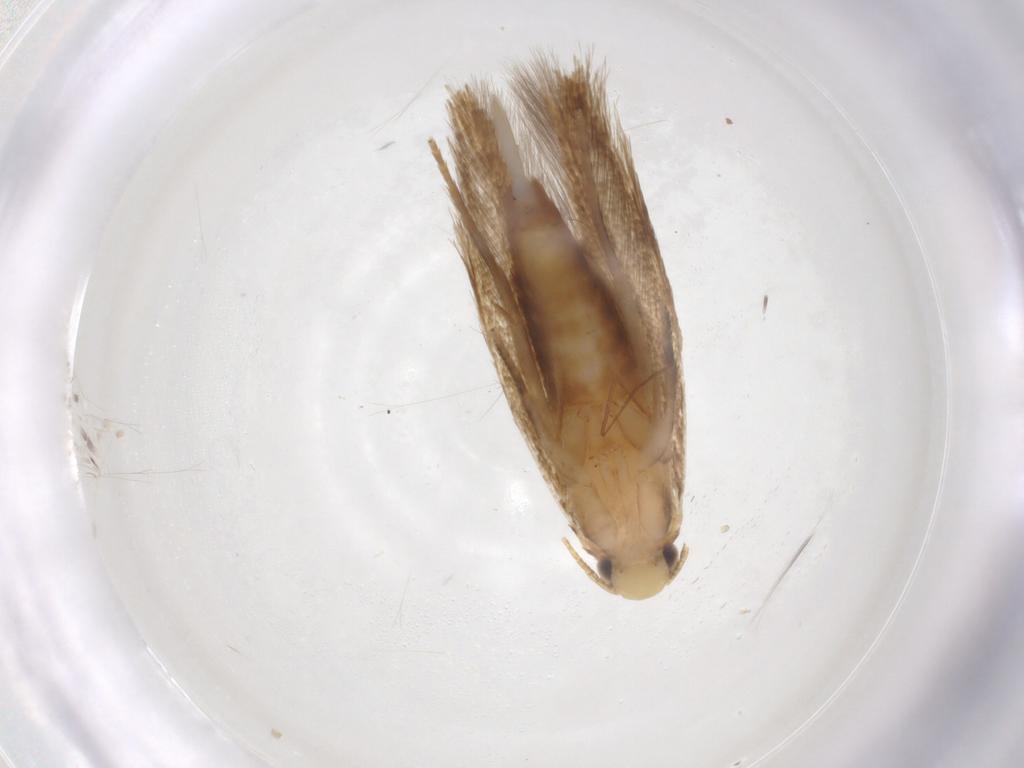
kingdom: Animalia
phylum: Arthropoda
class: Insecta
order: Lepidoptera
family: Tineidae
